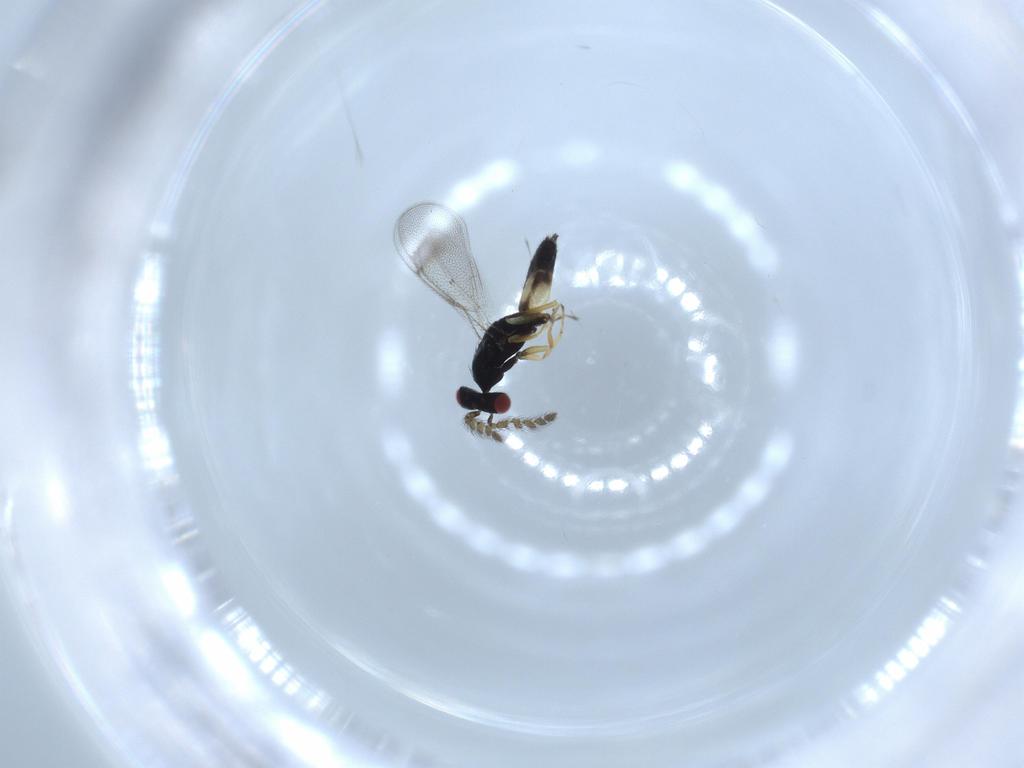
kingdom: Animalia
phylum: Arthropoda
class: Insecta
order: Hymenoptera
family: Eulophidae
